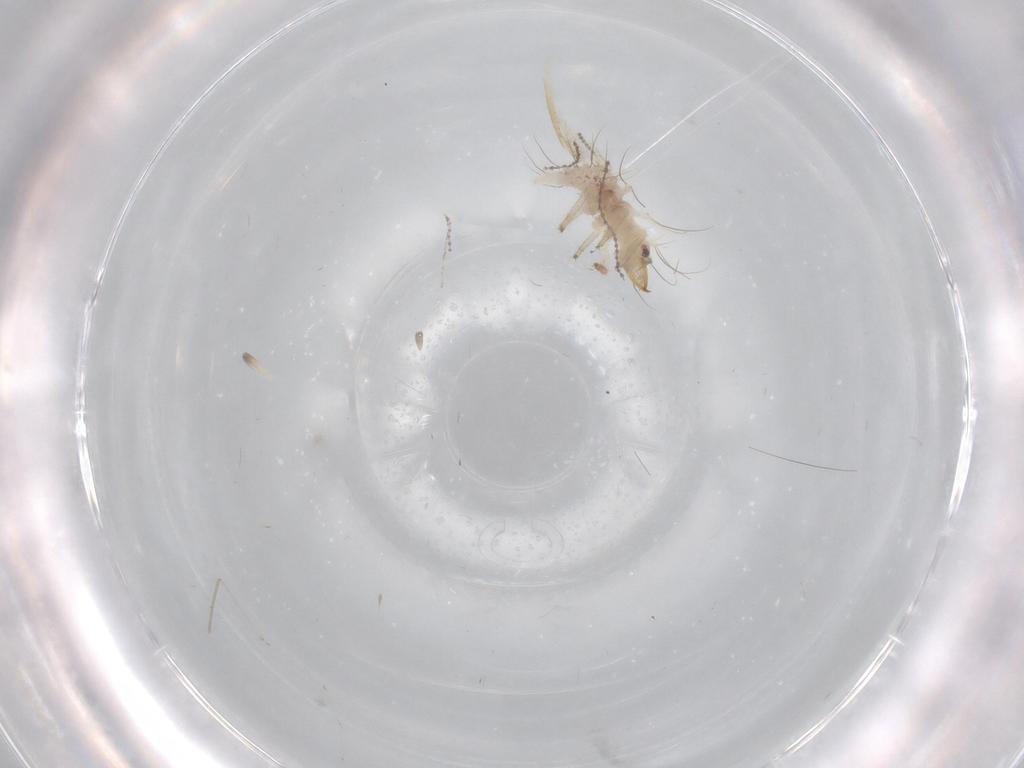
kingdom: Animalia
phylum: Arthropoda
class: Insecta
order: Neuroptera
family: Chrysopidae
